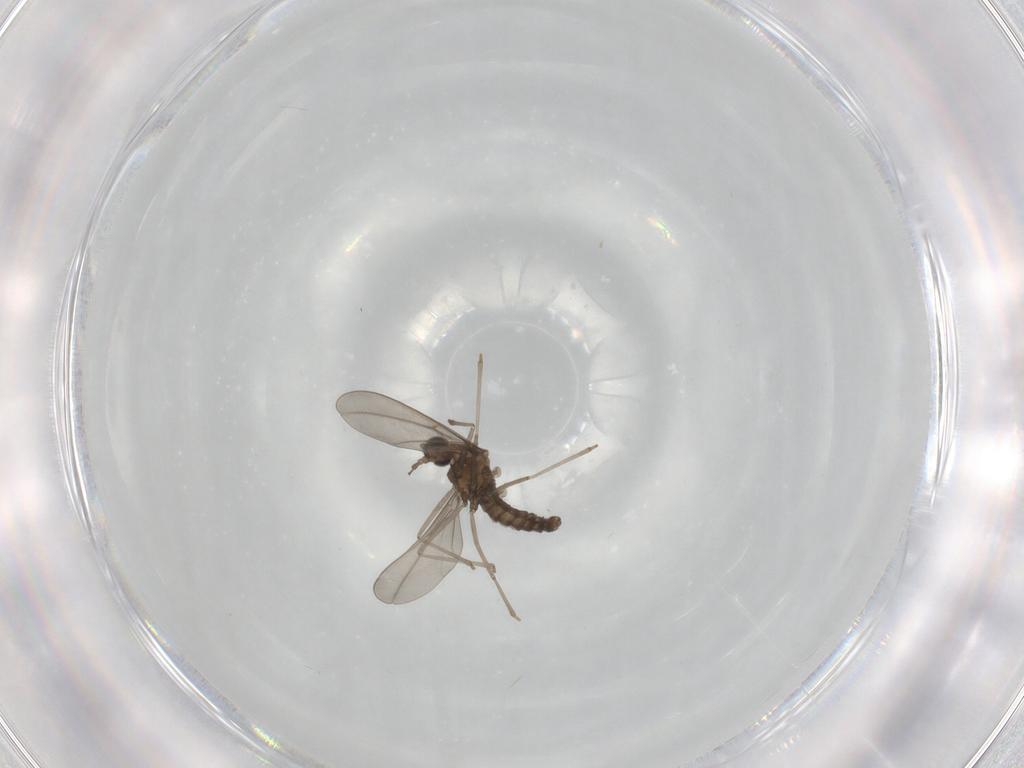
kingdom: Animalia
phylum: Arthropoda
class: Insecta
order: Diptera
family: Cecidomyiidae
